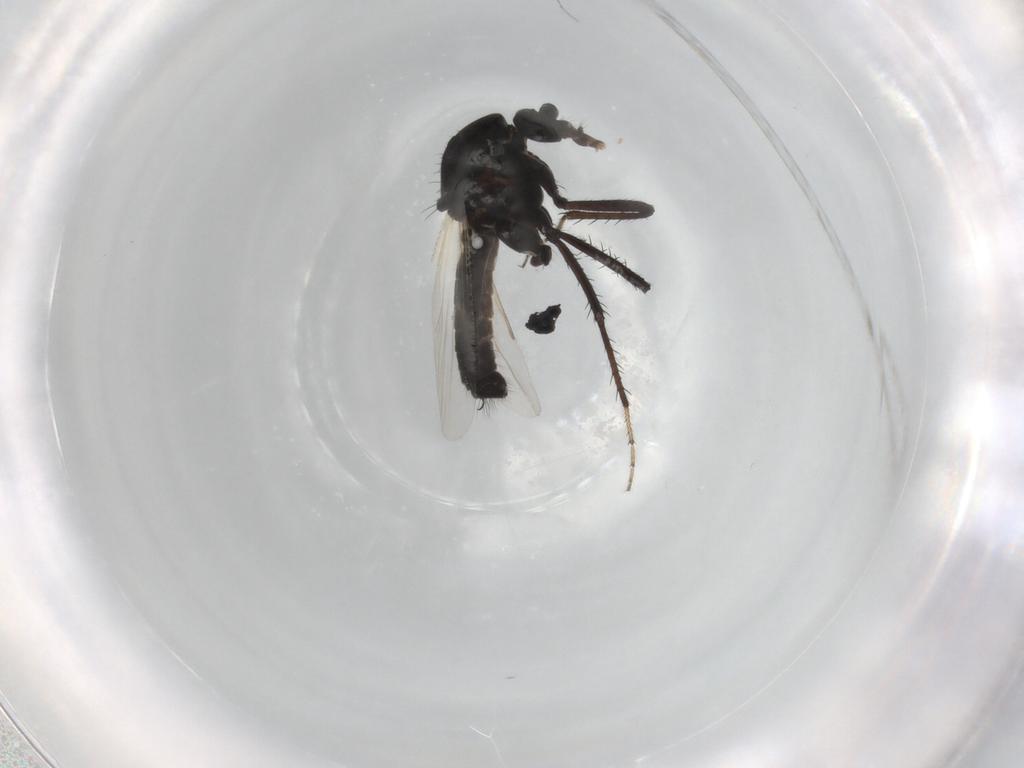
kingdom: Animalia
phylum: Arthropoda
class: Insecta
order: Diptera
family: Ceratopogonidae
